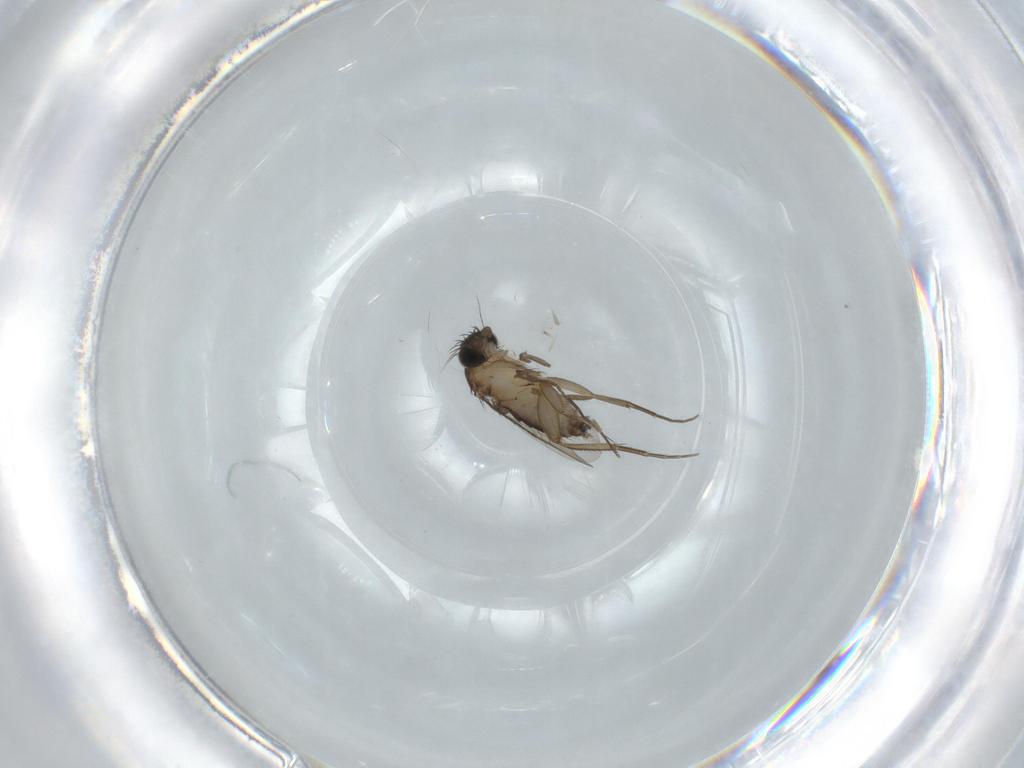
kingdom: Animalia
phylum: Arthropoda
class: Insecta
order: Diptera
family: Phoridae
